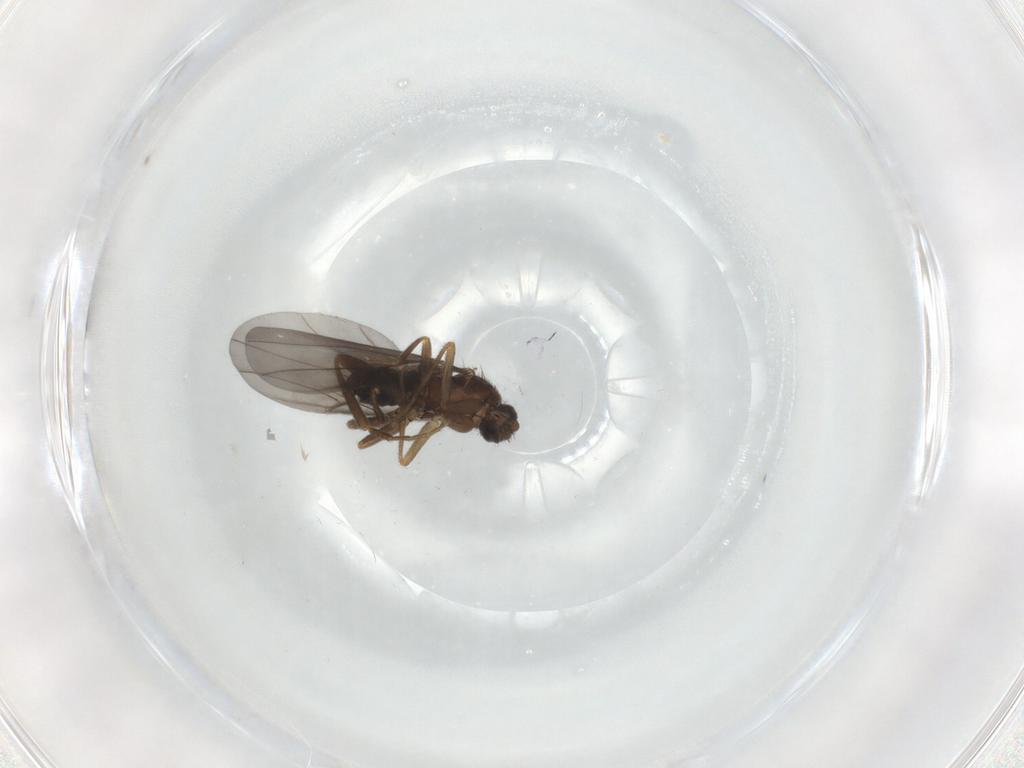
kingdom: Animalia
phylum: Arthropoda
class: Insecta
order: Diptera
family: Phoridae
